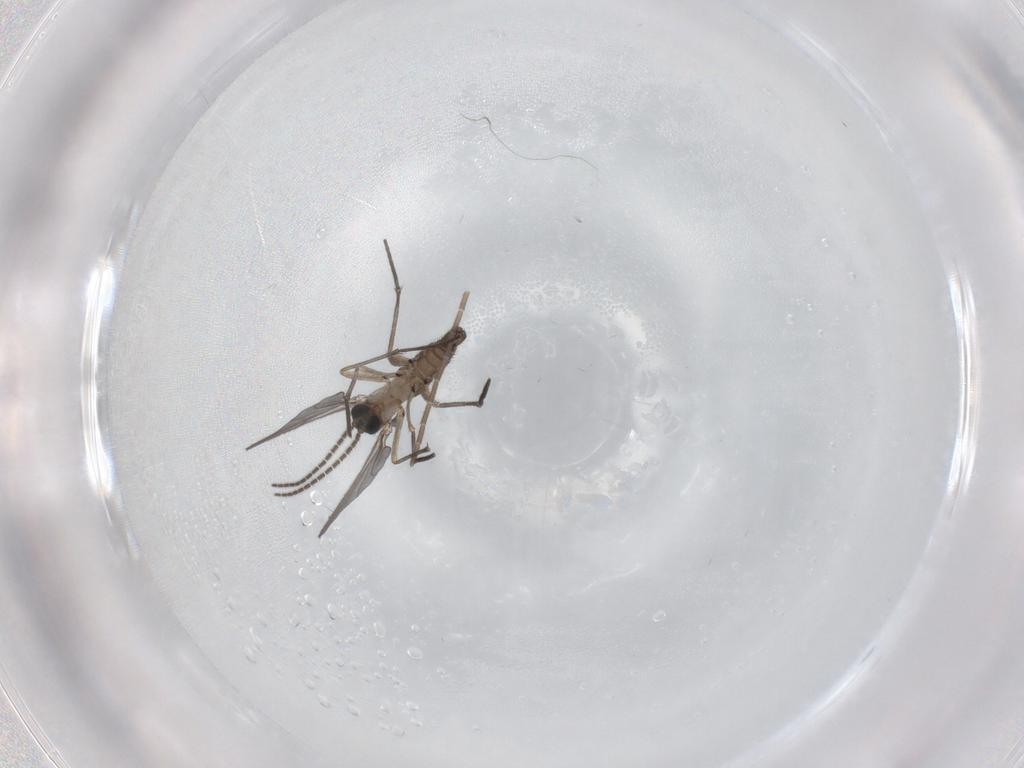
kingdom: Animalia
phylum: Arthropoda
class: Insecta
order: Diptera
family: Sciaridae
